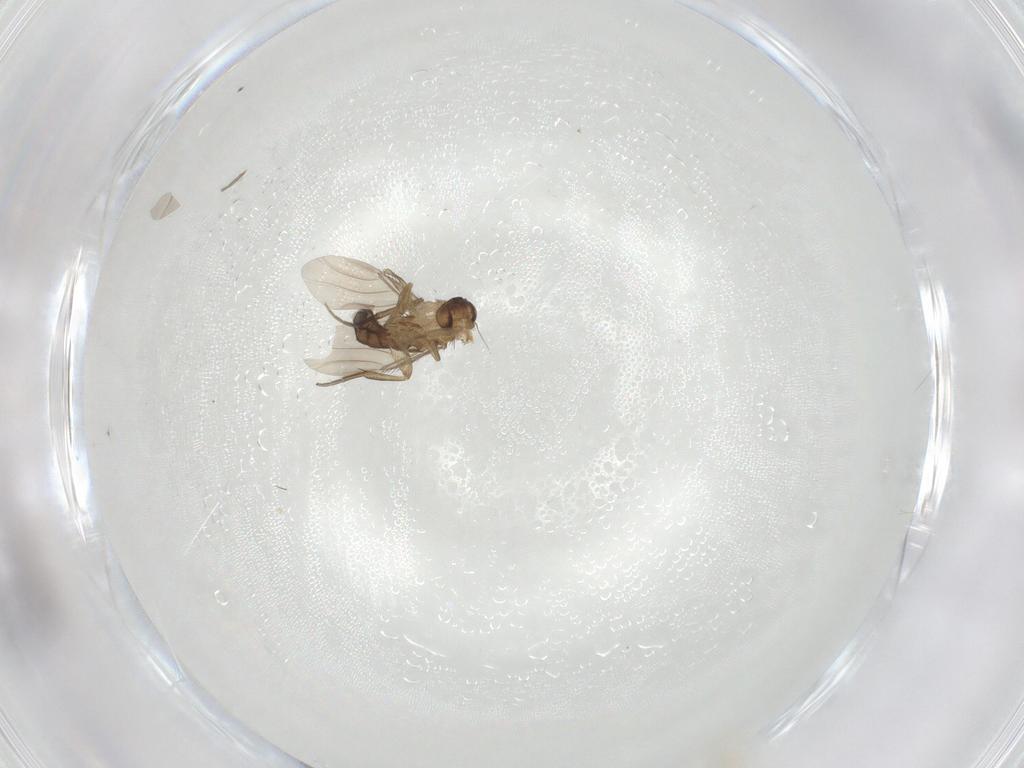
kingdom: Animalia
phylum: Arthropoda
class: Insecta
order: Diptera
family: Phoridae
